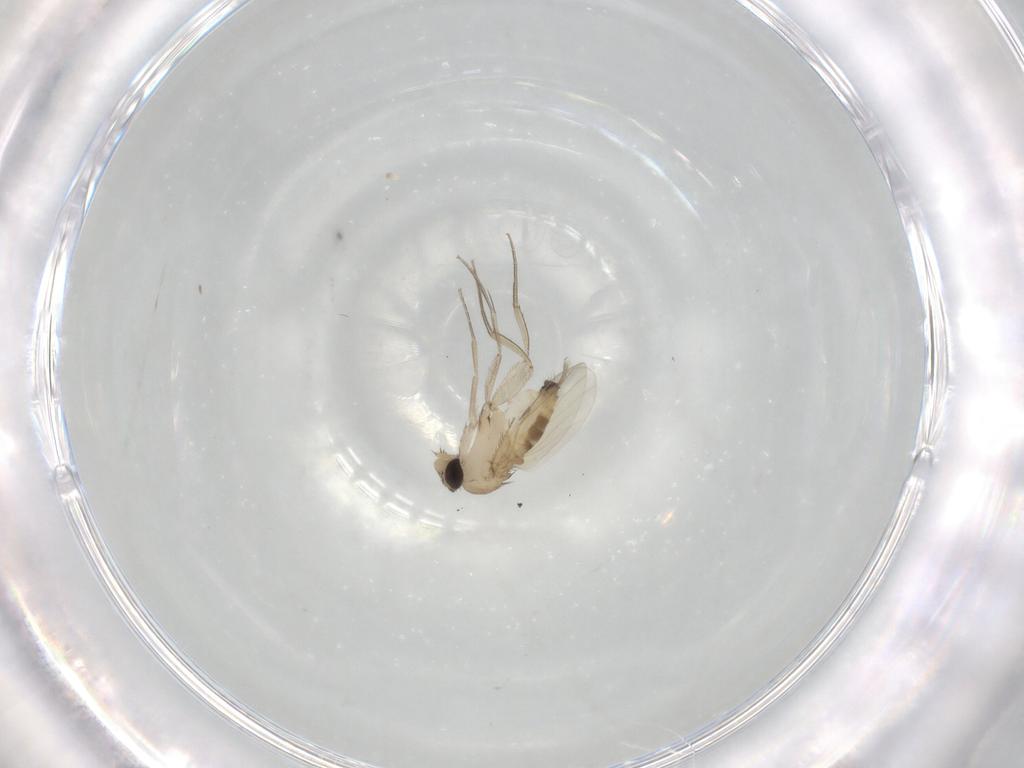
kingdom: Animalia
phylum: Arthropoda
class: Insecta
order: Diptera
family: Phoridae
